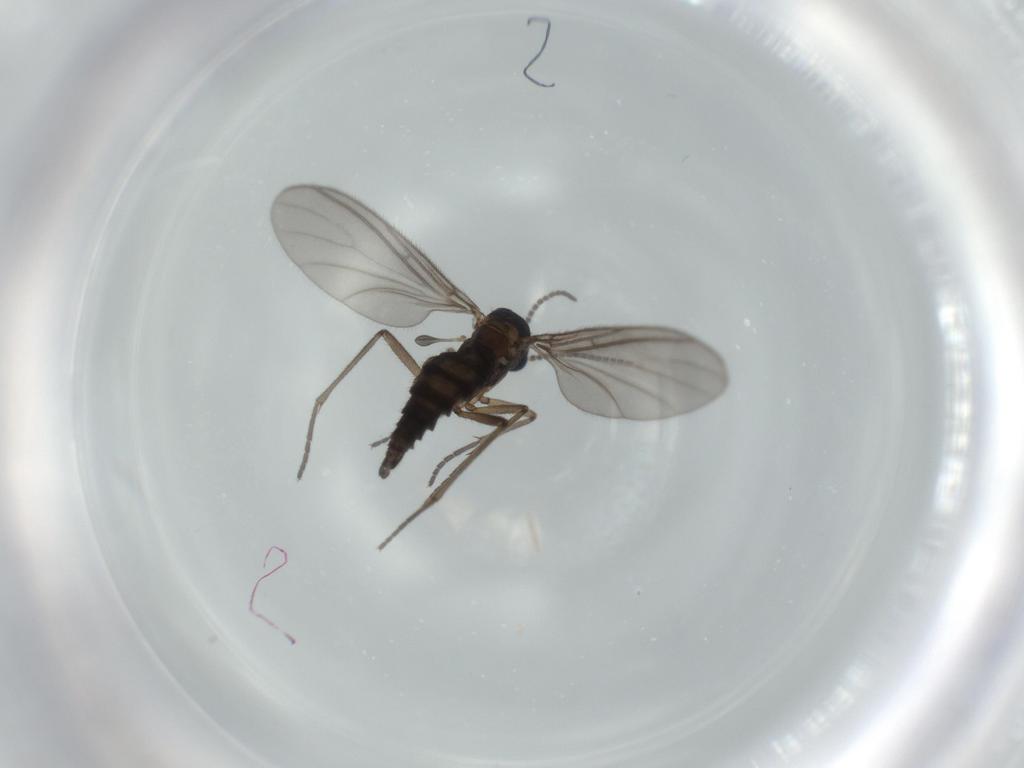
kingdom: Animalia
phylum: Arthropoda
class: Insecta
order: Diptera
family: Sciaridae
